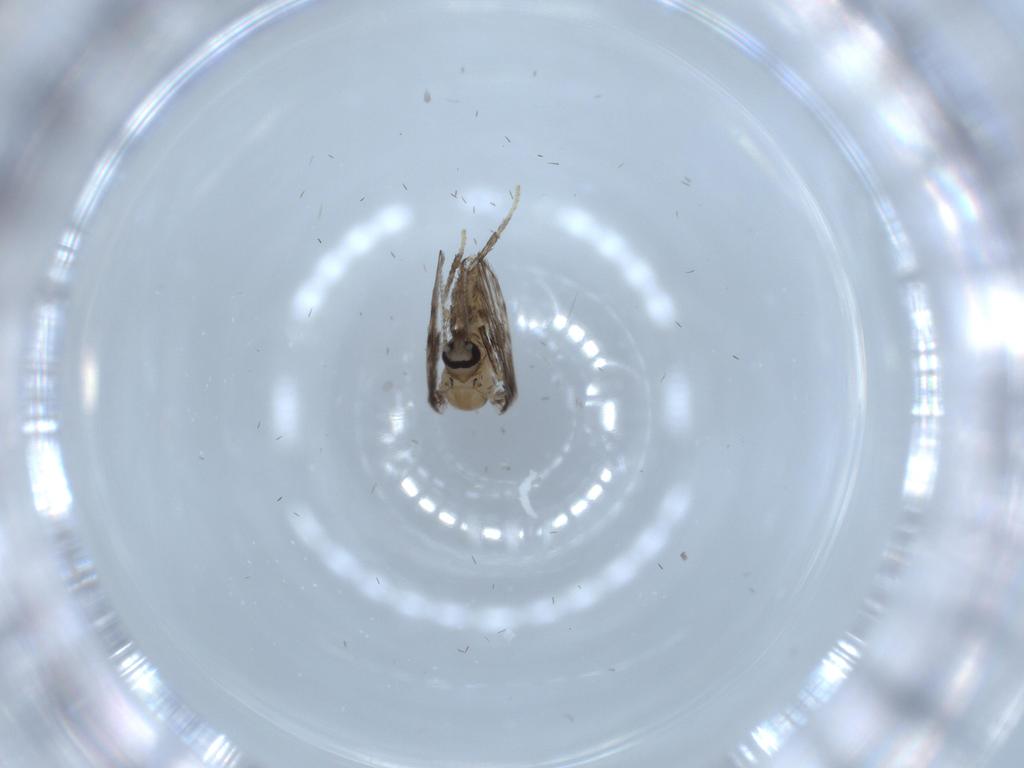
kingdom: Animalia
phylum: Arthropoda
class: Insecta
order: Diptera
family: Psychodidae
